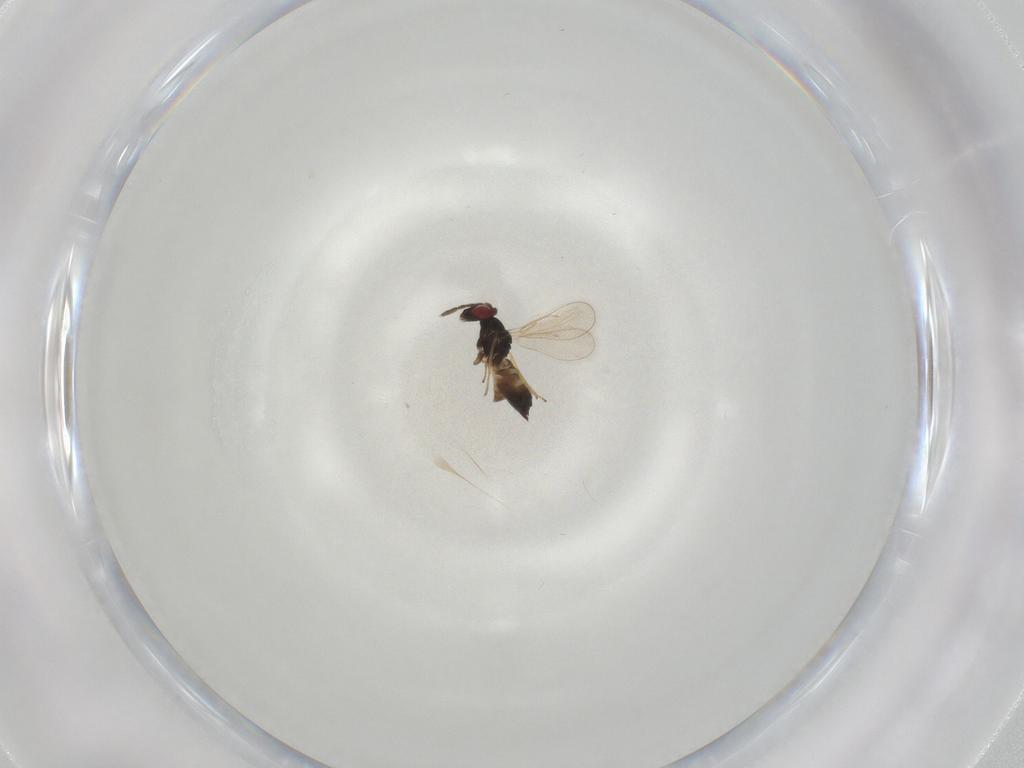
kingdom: Animalia
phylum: Arthropoda
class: Insecta
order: Hymenoptera
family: Eulophidae
